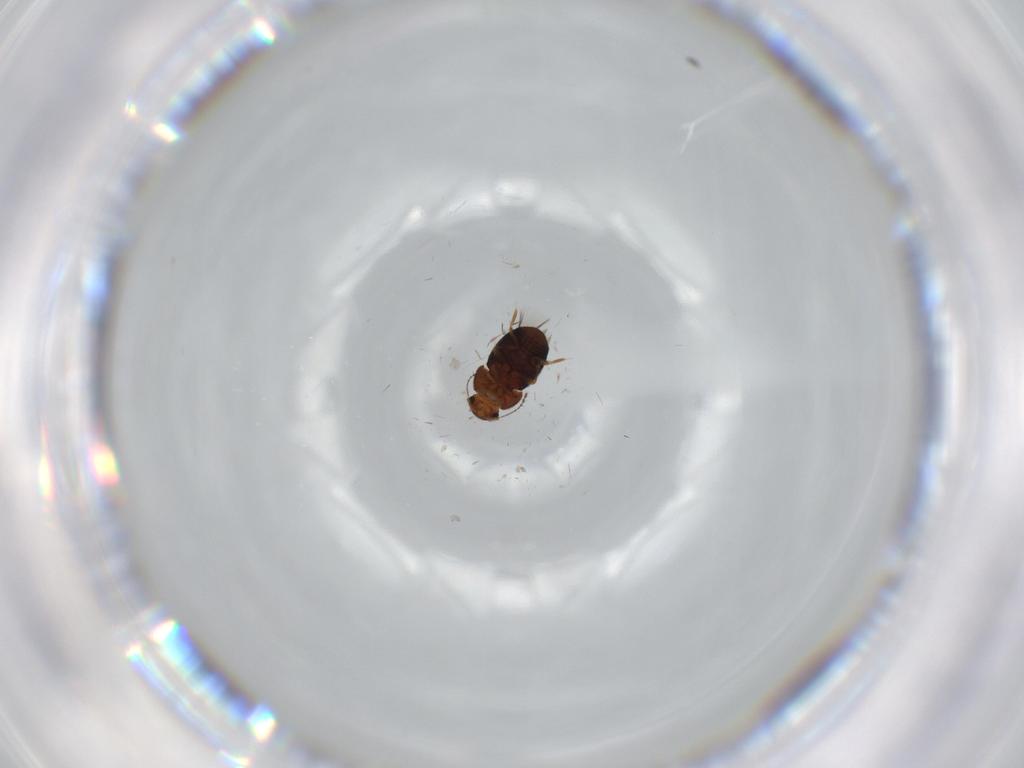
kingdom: Animalia
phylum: Arthropoda
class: Insecta
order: Coleoptera
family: Ptiliidae
